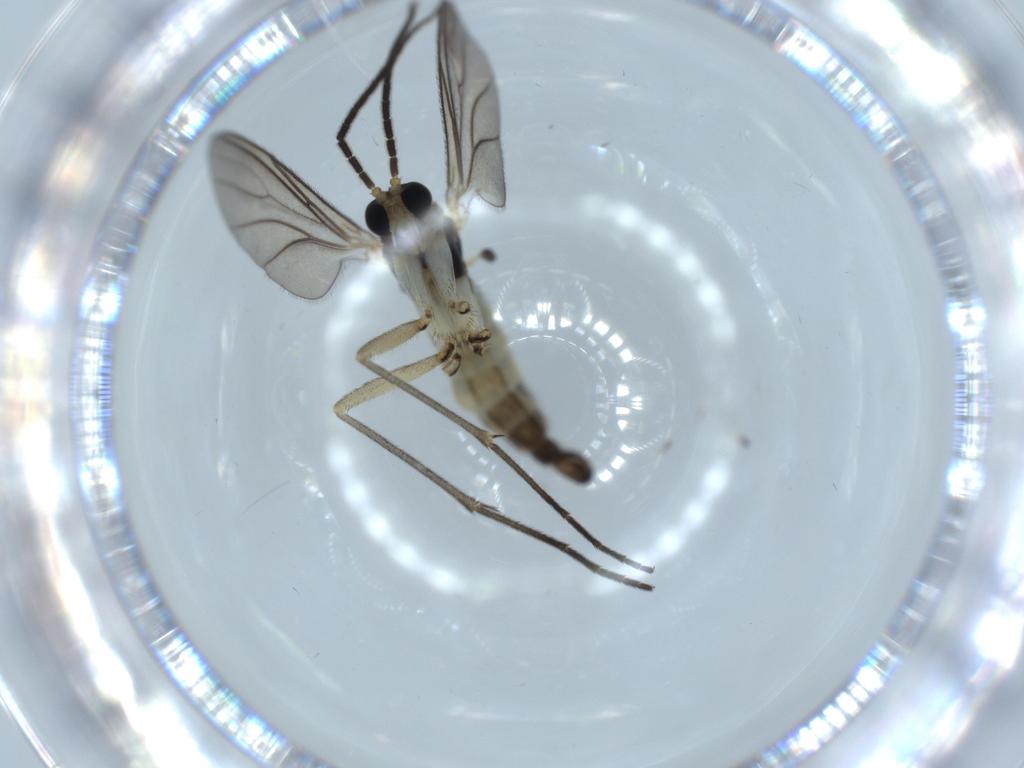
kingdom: Animalia
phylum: Arthropoda
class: Insecta
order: Diptera
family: Sciaridae
